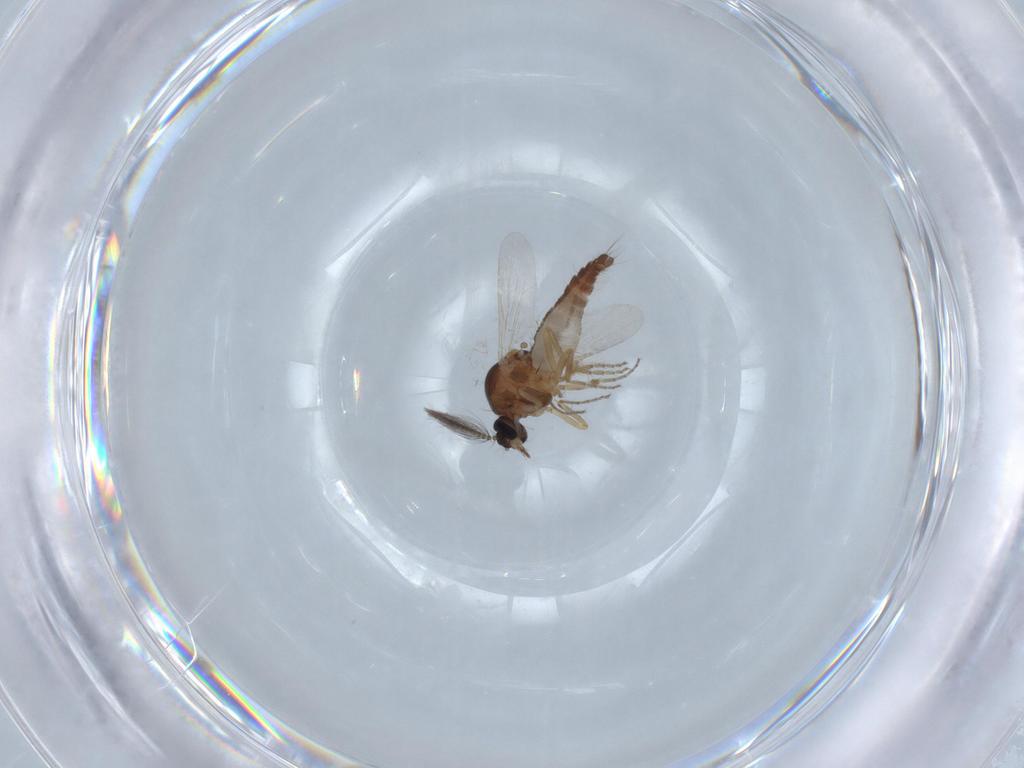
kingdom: Animalia
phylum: Arthropoda
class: Insecta
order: Diptera
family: Ceratopogonidae
